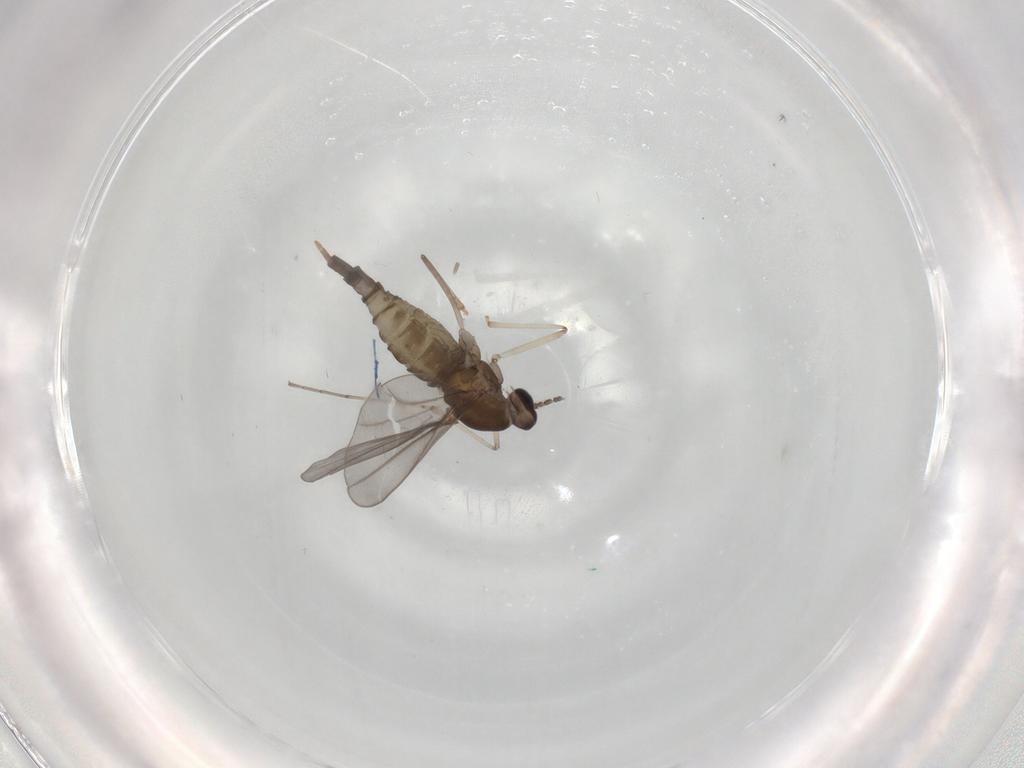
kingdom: Animalia
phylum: Arthropoda
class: Insecta
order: Diptera
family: Cecidomyiidae
